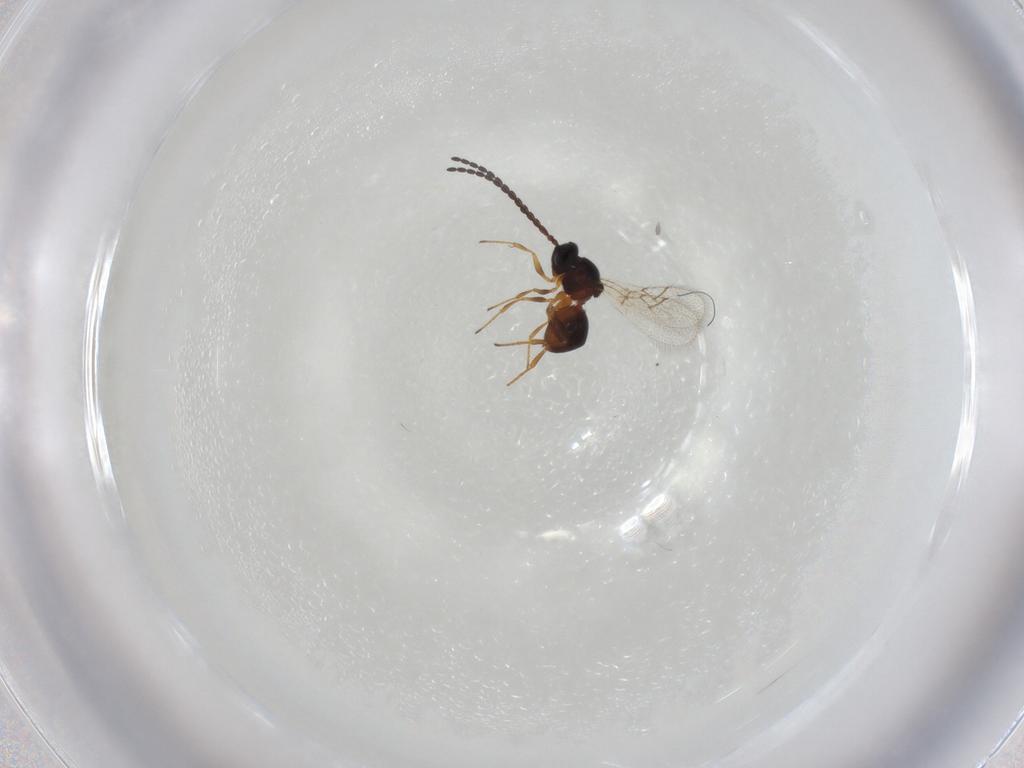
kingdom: Animalia
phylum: Arthropoda
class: Insecta
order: Hymenoptera
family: Figitidae
